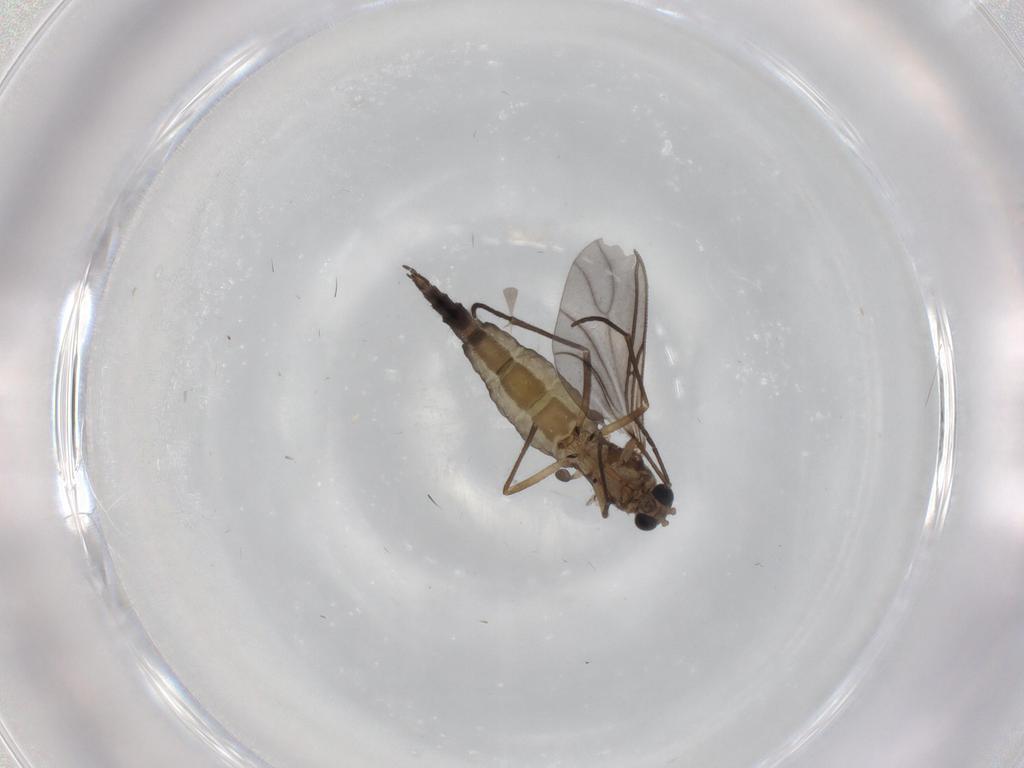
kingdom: Animalia
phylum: Arthropoda
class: Insecta
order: Diptera
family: Sciaridae
